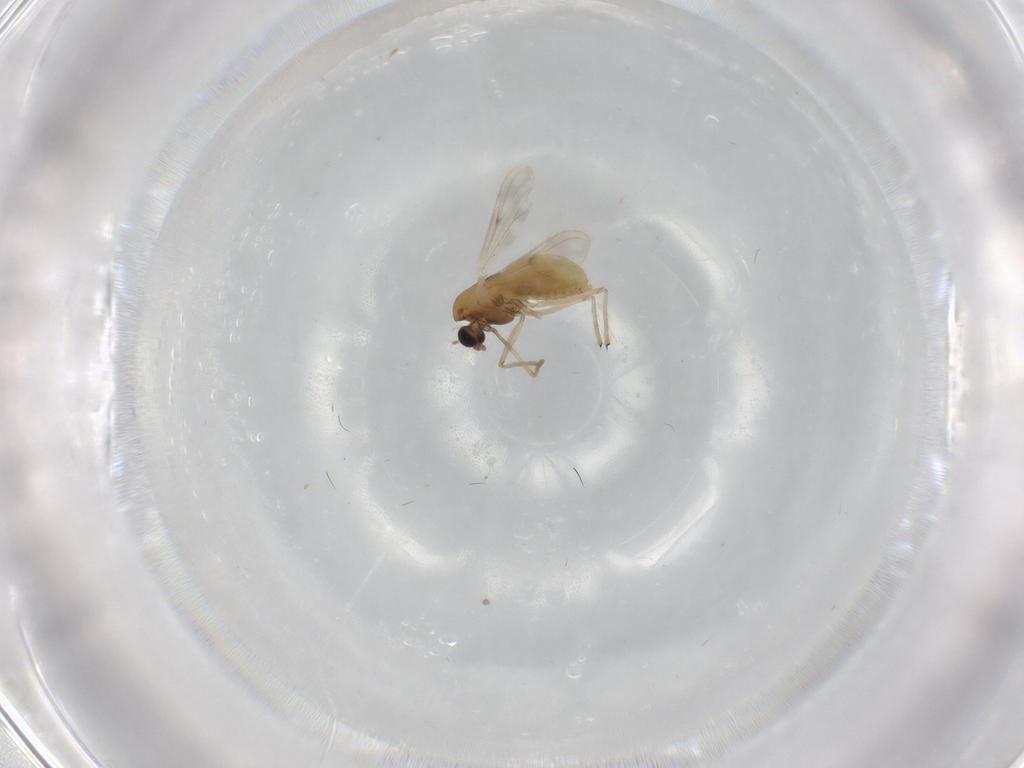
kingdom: Animalia
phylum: Arthropoda
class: Insecta
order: Diptera
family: Chironomidae
